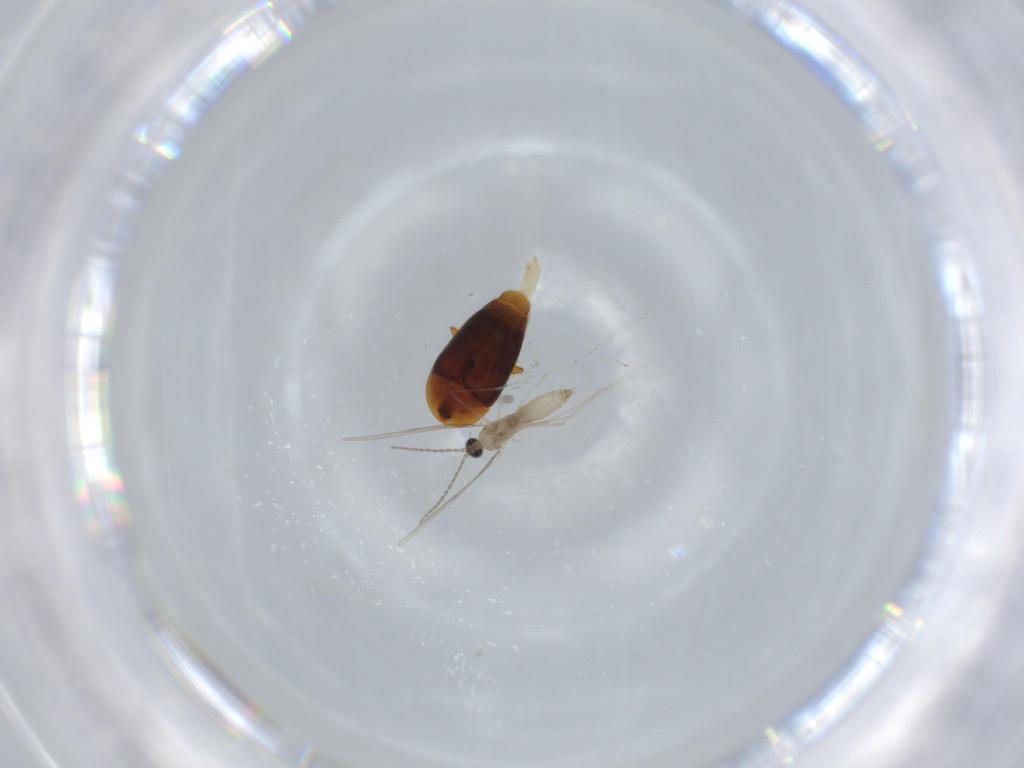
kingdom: Animalia
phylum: Arthropoda
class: Insecta
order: Diptera
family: Cecidomyiidae
